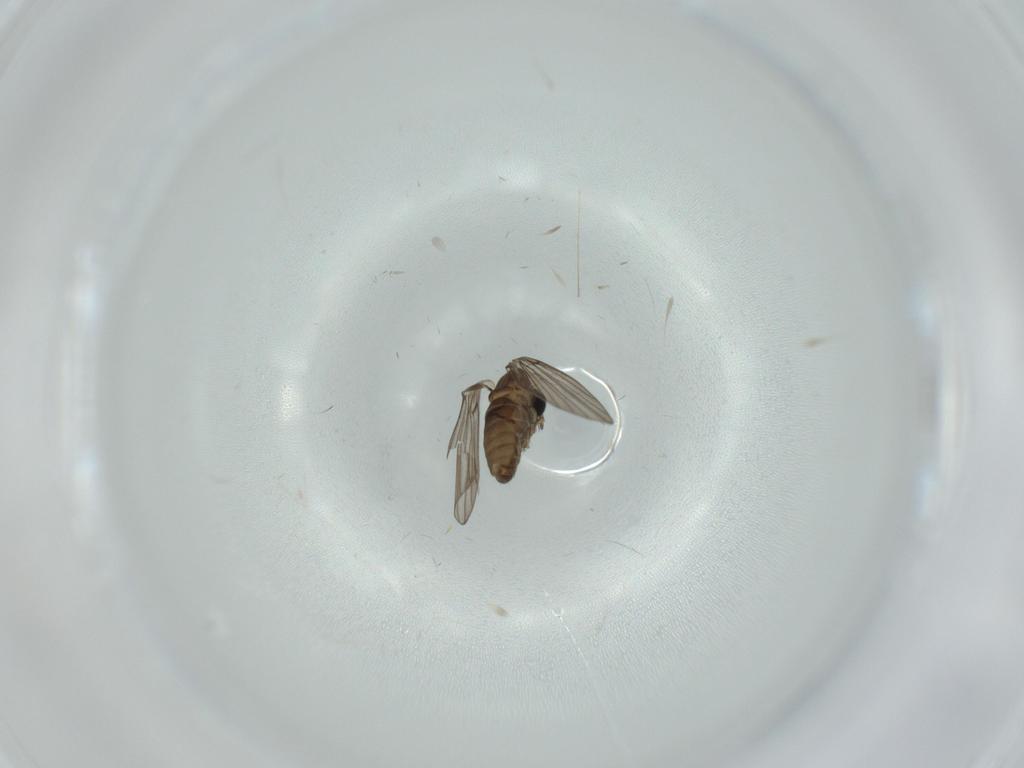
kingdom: Animalia
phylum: Arthropoda
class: Insecta
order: Diptera
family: Psychodidae
